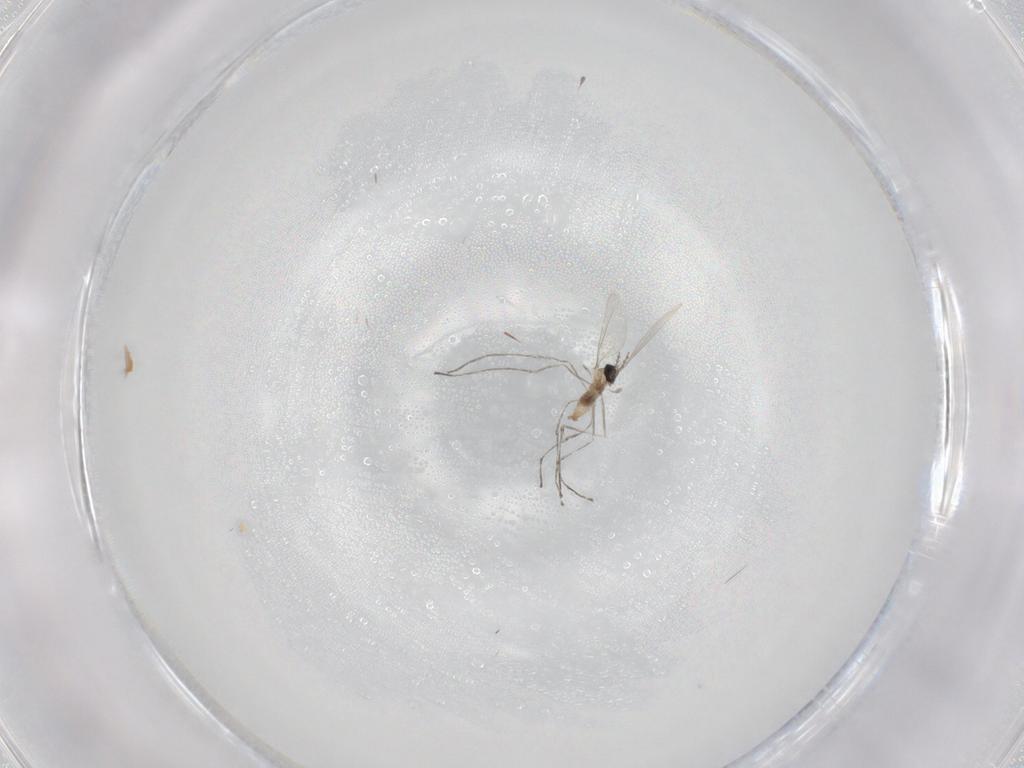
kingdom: Animalia
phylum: Arthropoda
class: Insecta
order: Diptera
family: Cecidomyiidae
